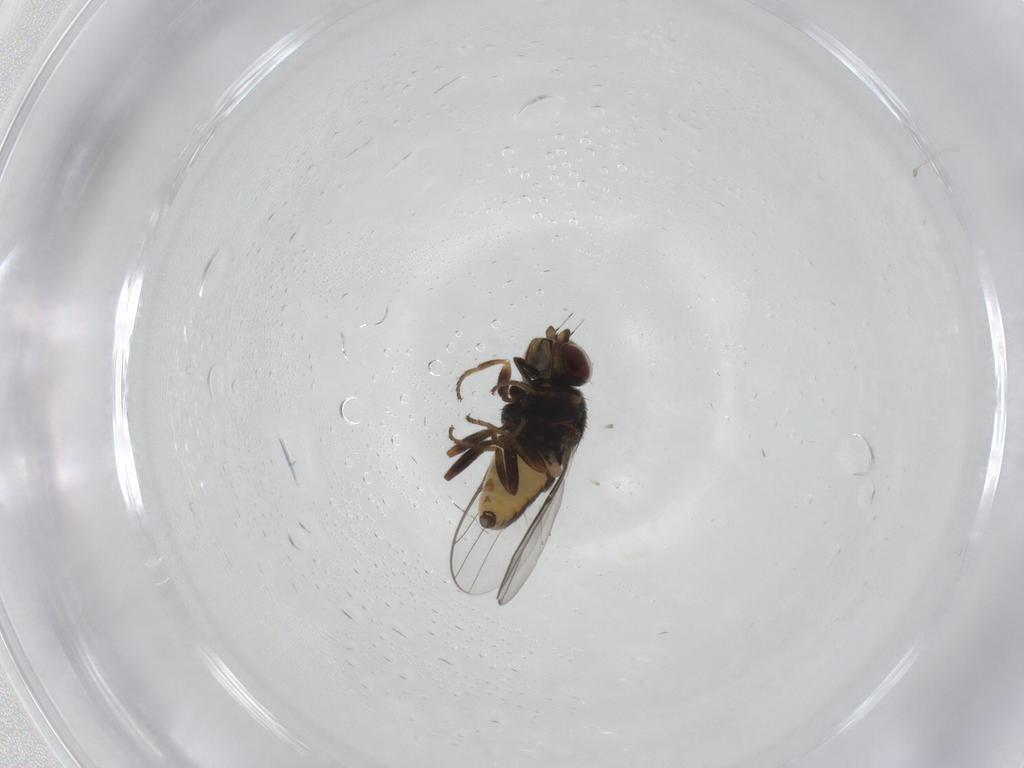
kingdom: Animalia
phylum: Arthropoda
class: Insecta
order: Diptera
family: Chloropidae
